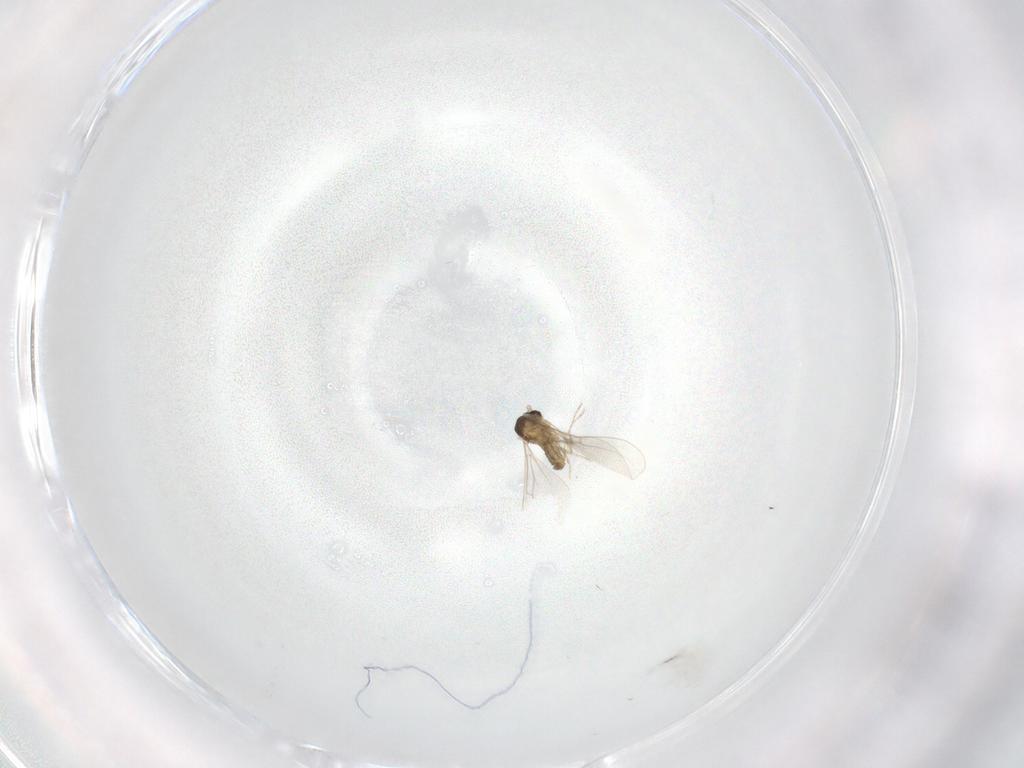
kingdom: Animalia
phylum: Arthropoda
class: Insecta
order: Diptera
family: Cecidomyiidae
